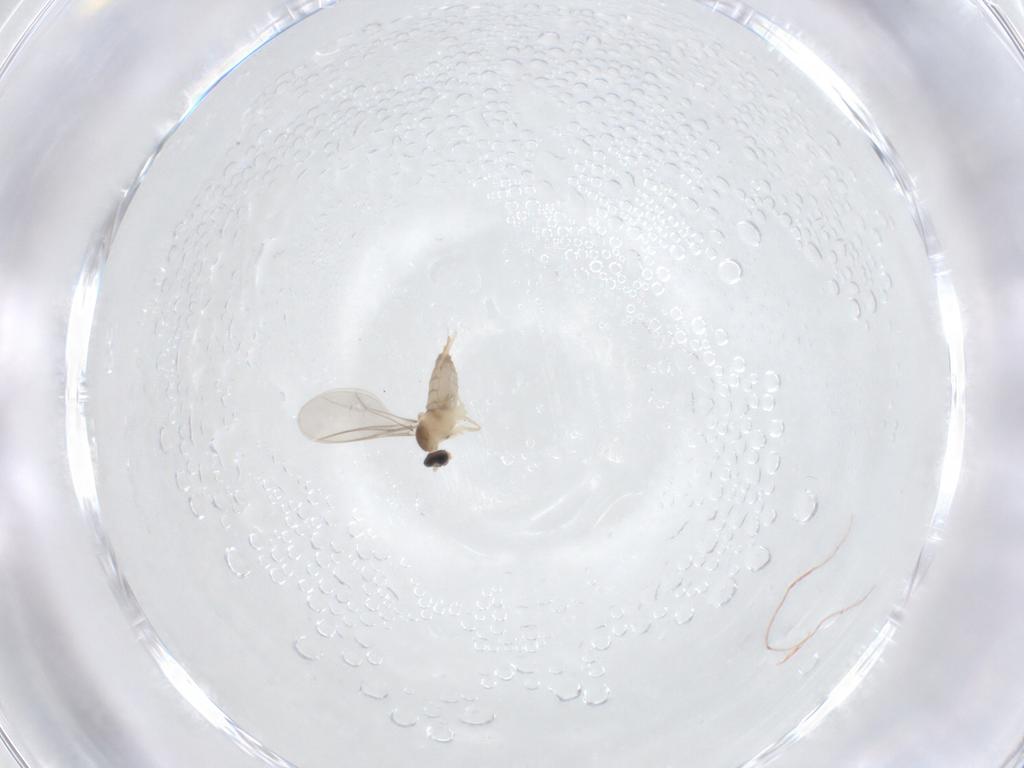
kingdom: Animalia
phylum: Arthropoda
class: Insecta
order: Diptera
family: Cecidomyiidae
